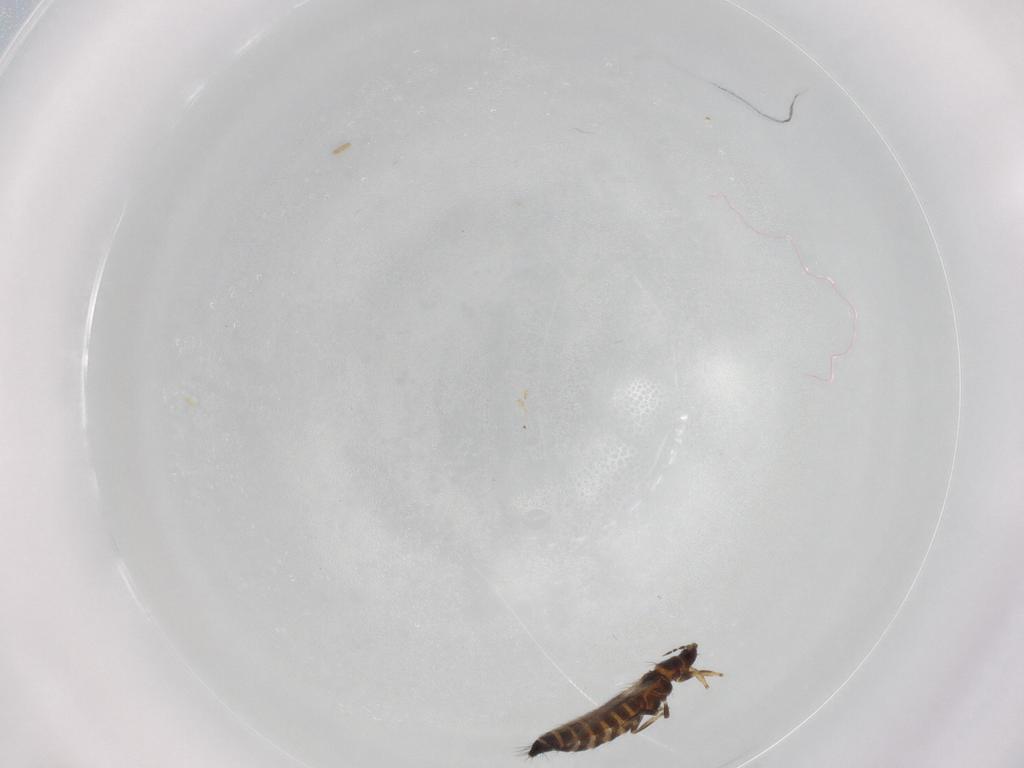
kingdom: Animalia
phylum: Arthropoda
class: Insecta
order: Thysanoptera
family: Thripidae
